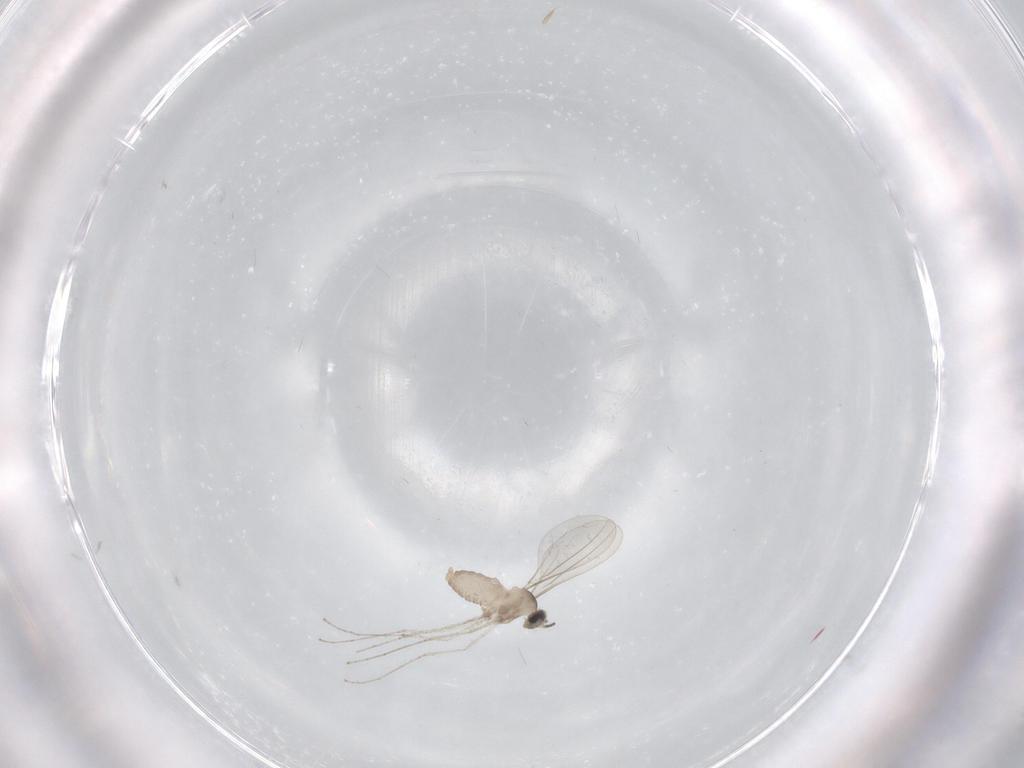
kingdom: Animalia
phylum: Arthropoda
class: Insecta
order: Diptera
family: Cecidomyiidae
